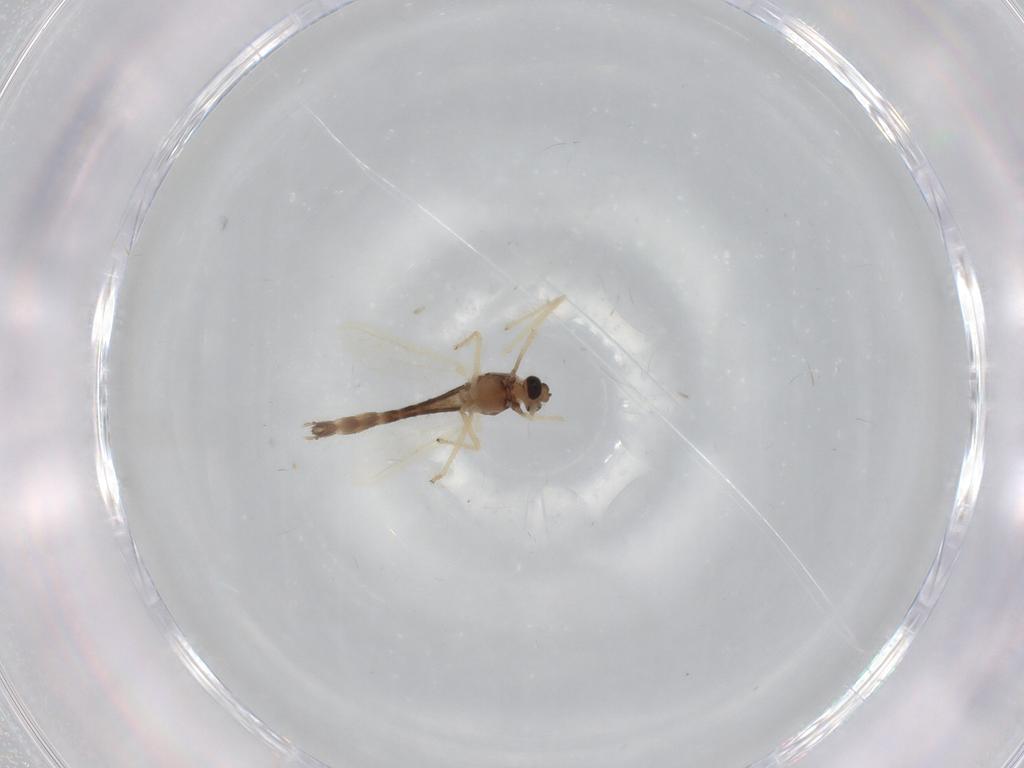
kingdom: Animalia
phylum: Arthropoda
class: Insecta
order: Diptera
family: Chironomidae
